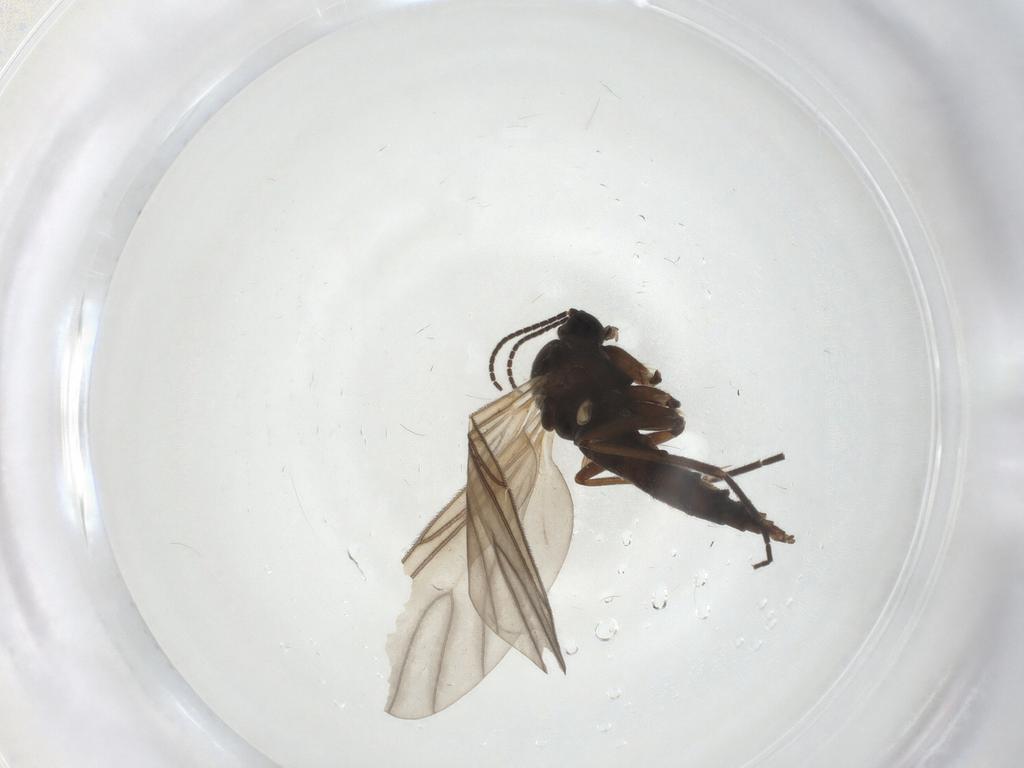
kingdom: Animalia
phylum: Arthropoda
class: Insecta
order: Diptera
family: Sciaridae
